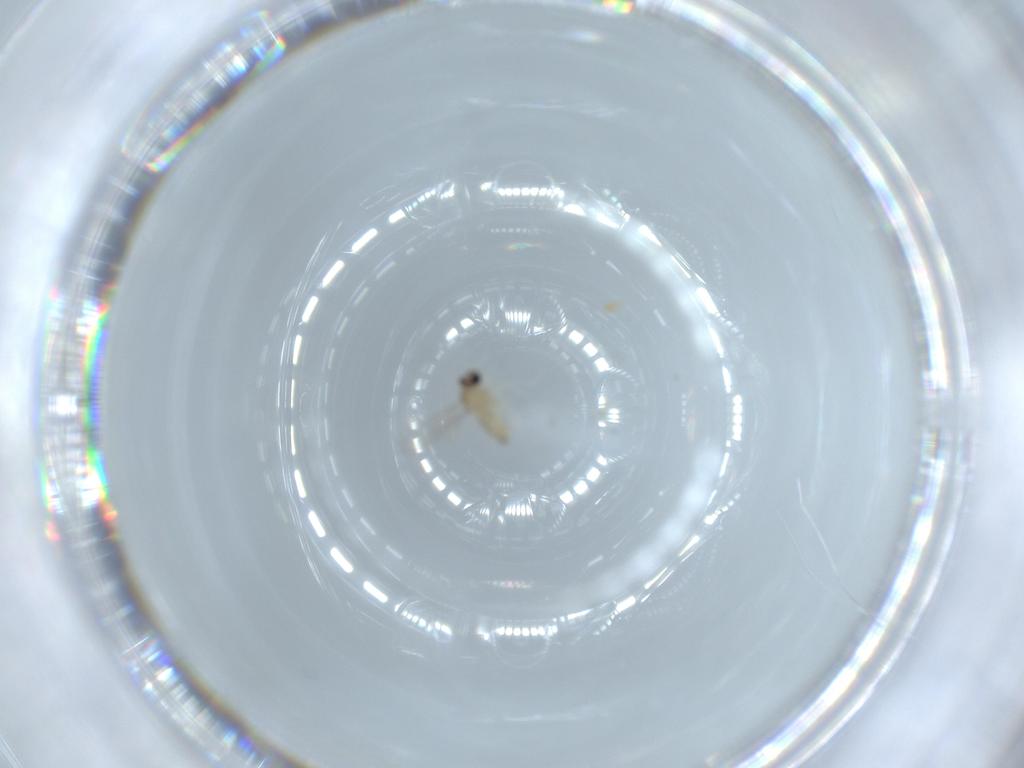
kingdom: Animalia
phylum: Arthropoda
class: Insecta
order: Diptera
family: Cecidomyiidae
